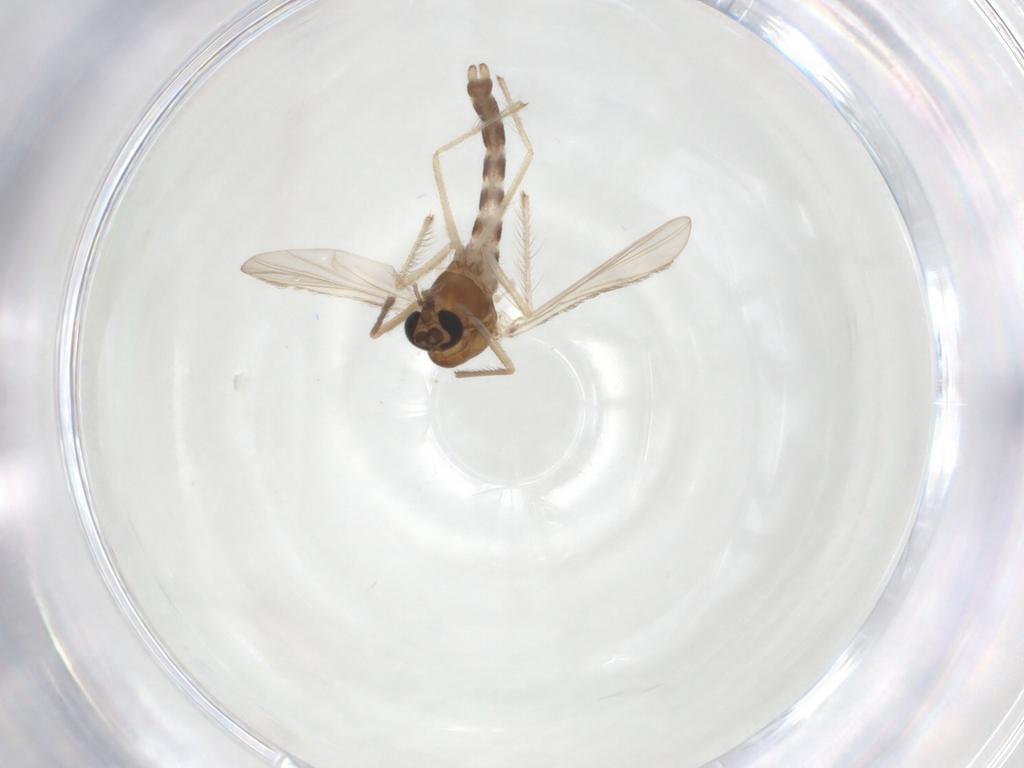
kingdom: Animalia
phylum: Arthropoda
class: Insecta
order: Diptera
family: Chironomidae
